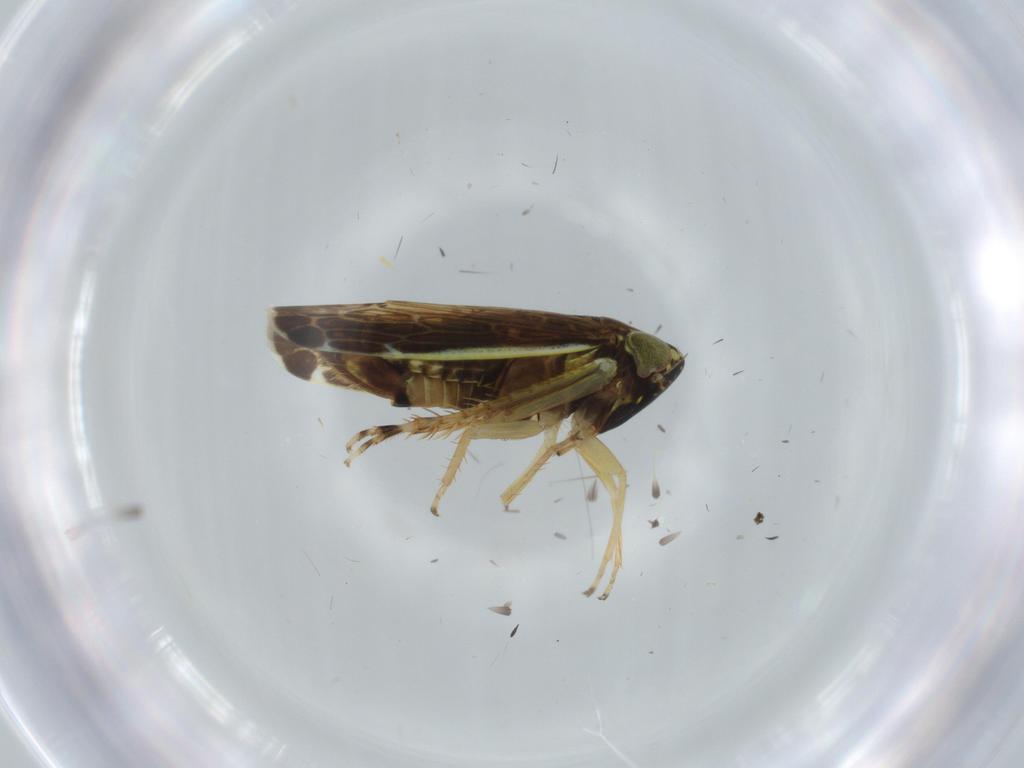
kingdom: Animalia
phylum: Arthropoda
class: Insecta
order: Hemiptera
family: Cicadellidae
